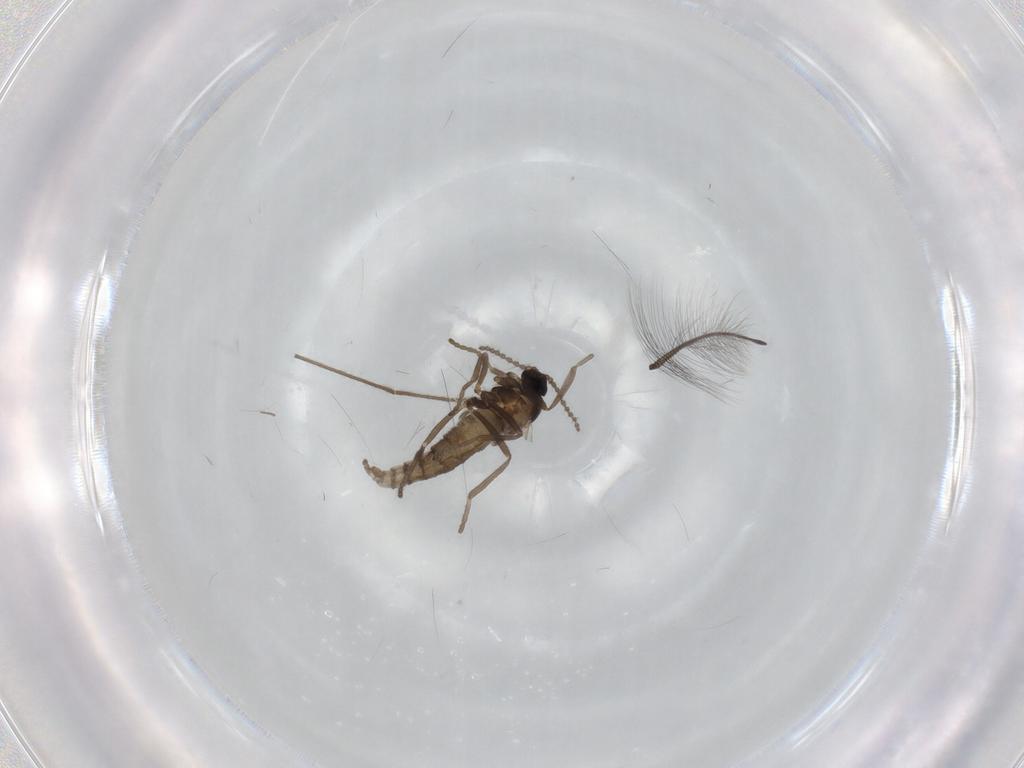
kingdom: Animalia
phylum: Arthropoda
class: Insecta
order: Diptera
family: Cecidomyiidae
